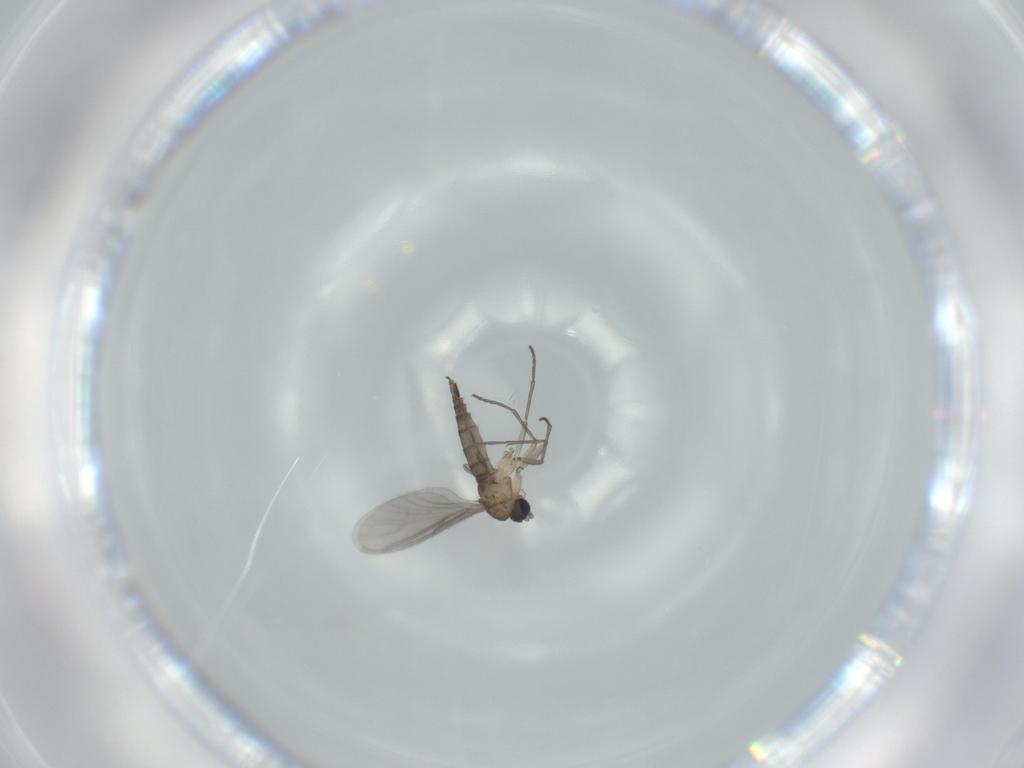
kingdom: Animalia
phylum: Arthropoda
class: Insecta
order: Diptera
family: Sciaridae
